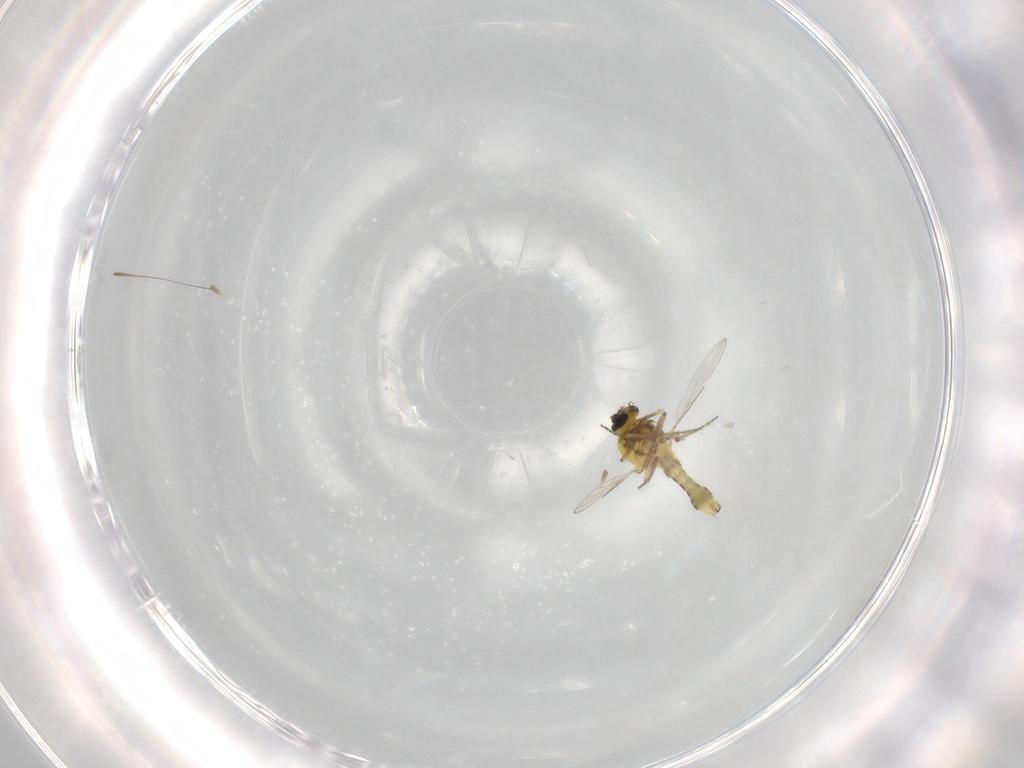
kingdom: Animalia
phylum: Arthropoda
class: Insecta
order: Diptera
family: Ceratopogonidae
